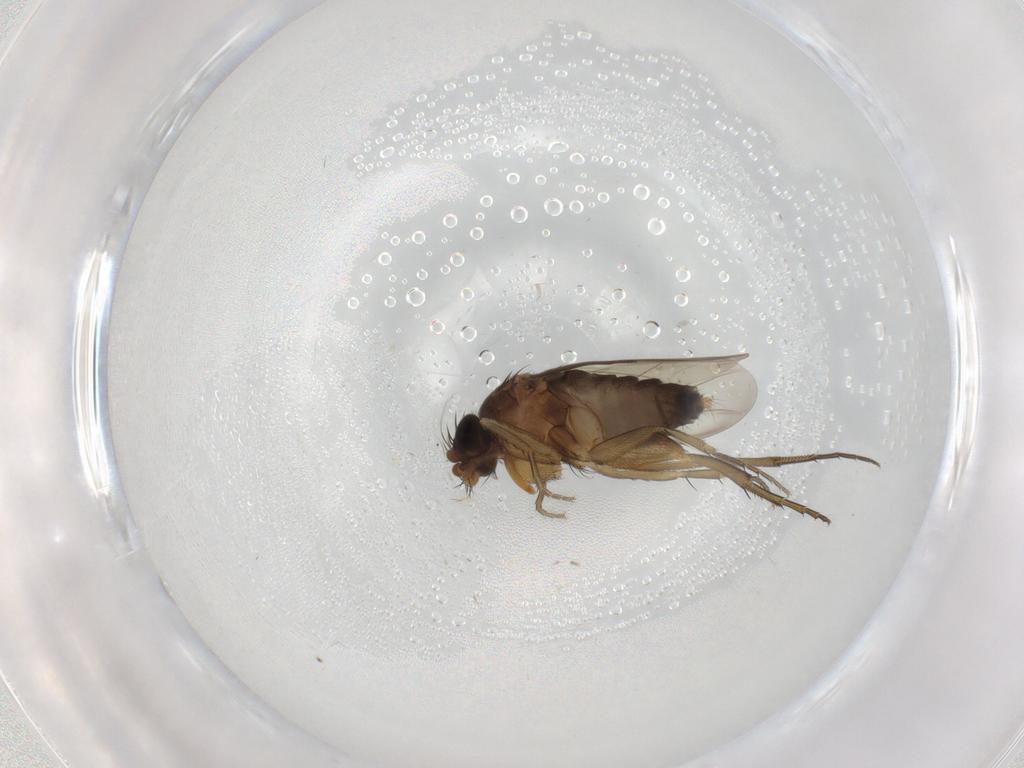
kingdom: Animalia
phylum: Arthropoda
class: Insecta
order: Diptera
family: Phoridae
